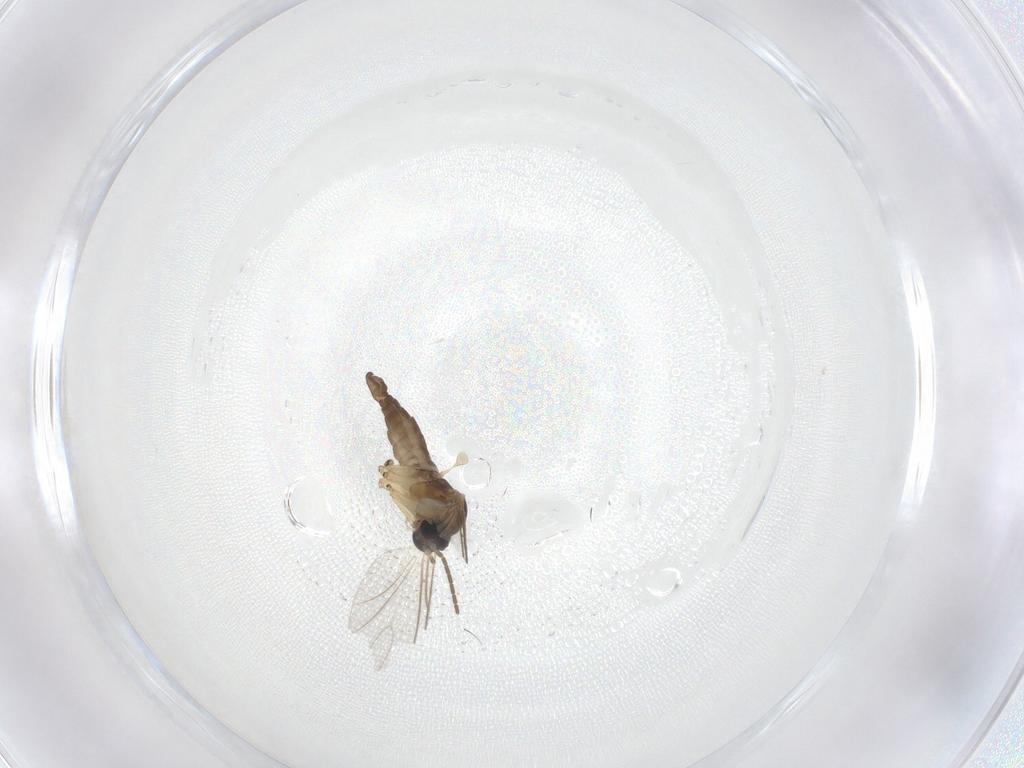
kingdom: Animalia
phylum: Arthropoda
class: Insecta
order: Diptera
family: Sciaridae
